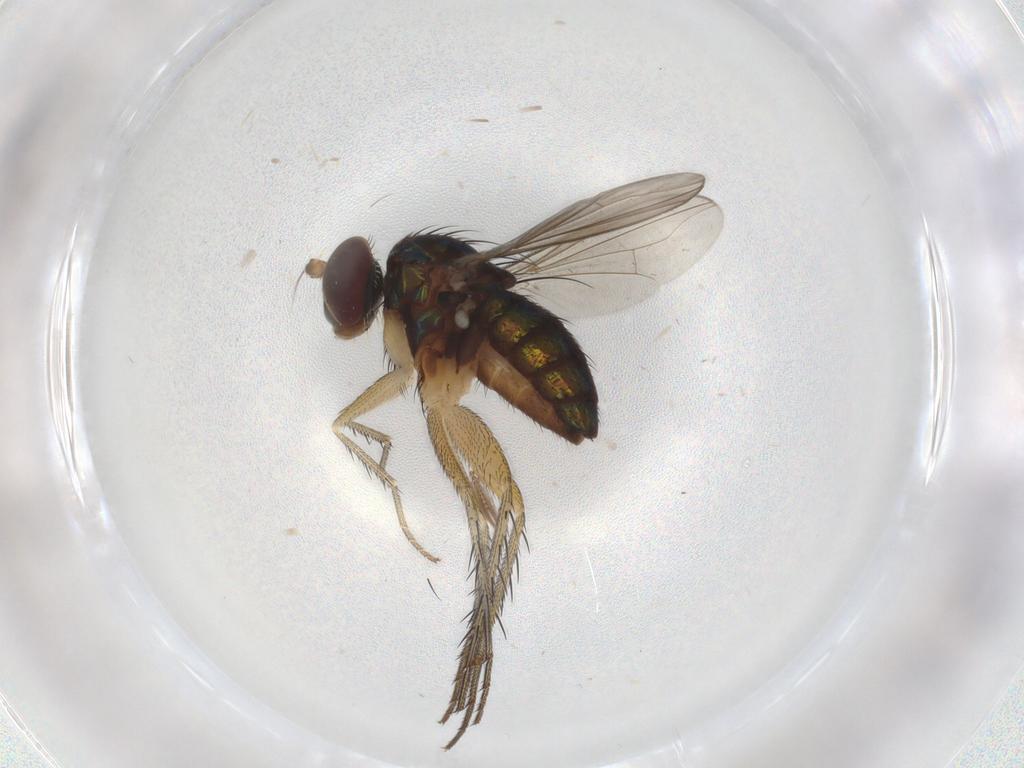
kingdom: Animalia
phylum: Arthropoda
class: Insecta
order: Diptera
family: Dolichopodidae
